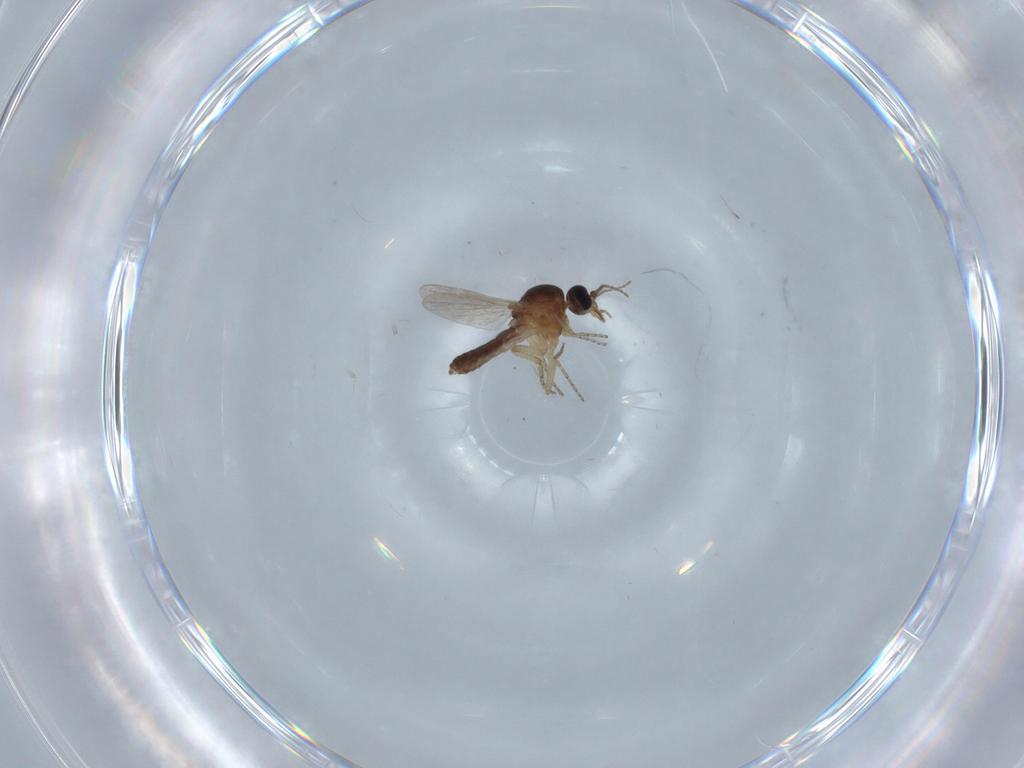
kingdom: Animalia
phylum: Arthropoda
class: Insecta
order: Diptera
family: Ceratopogonidae
